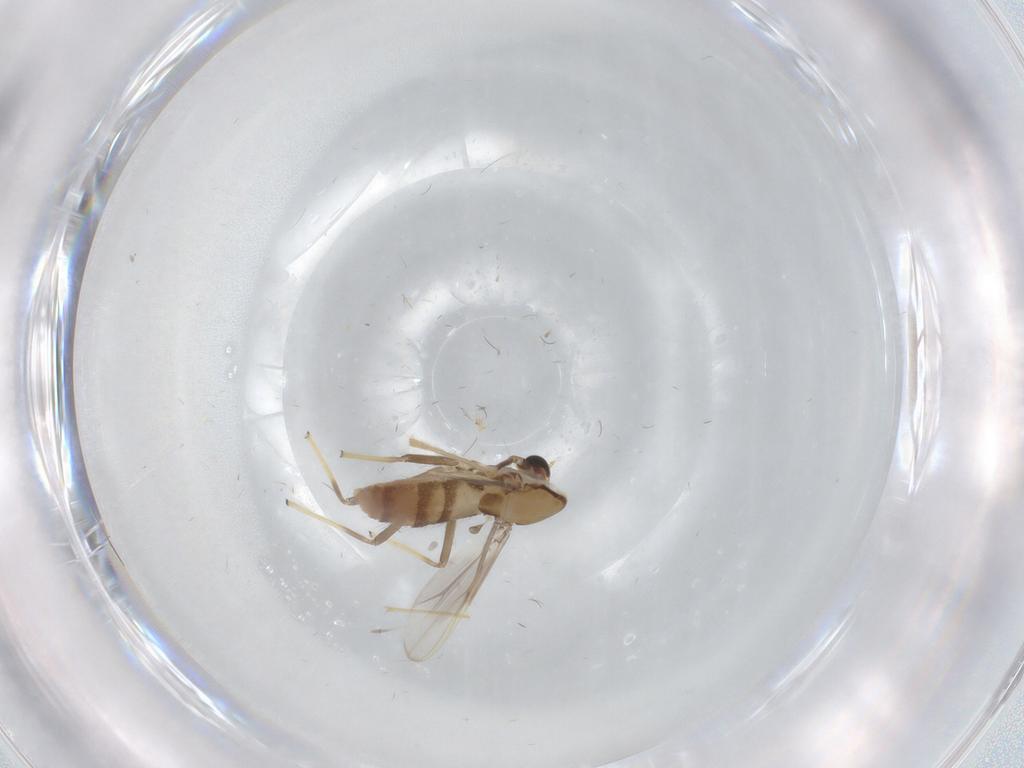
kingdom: Animalia
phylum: Arthropoda
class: Insecta
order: Diptera
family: Chironomidae
